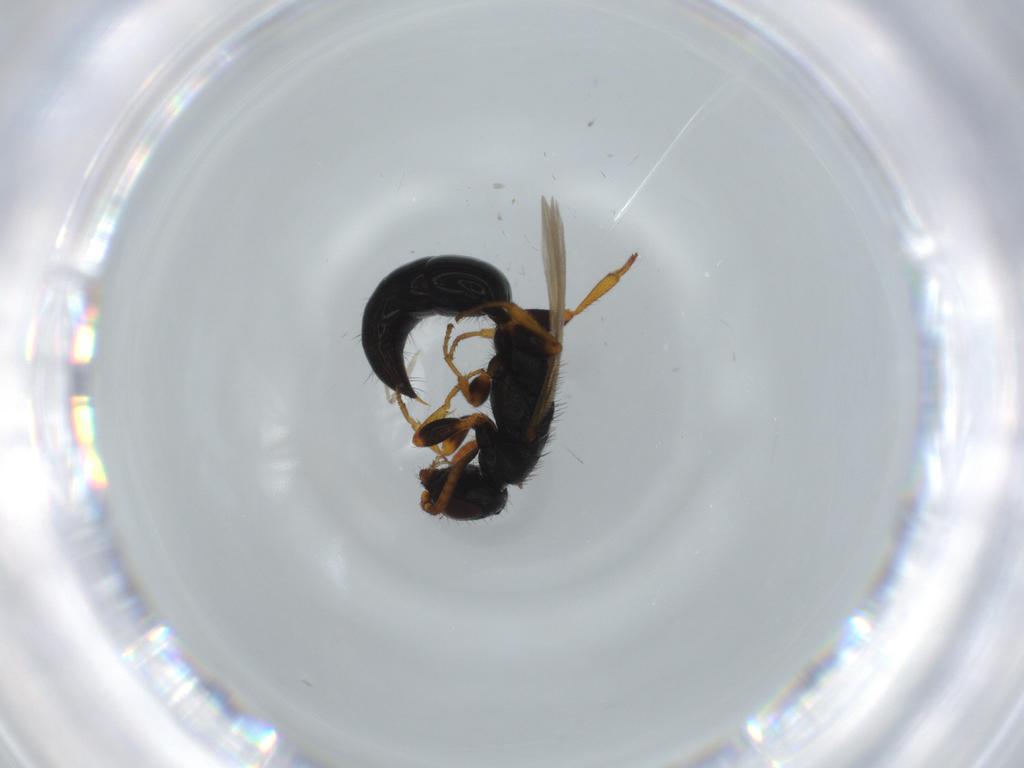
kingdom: Animalia
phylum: Arthropoda
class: Insecta
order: Hymenoptera
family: Bethylidae
